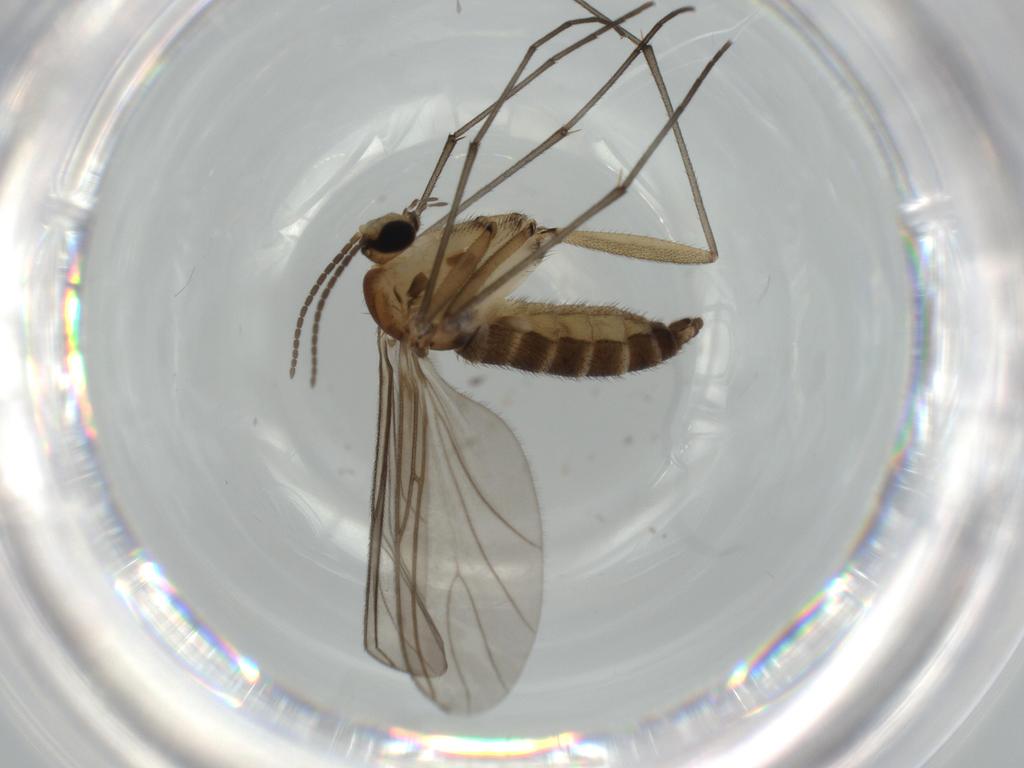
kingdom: Animalia
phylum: Arthropoda
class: Insecta
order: Diptera
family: Sciaridae
